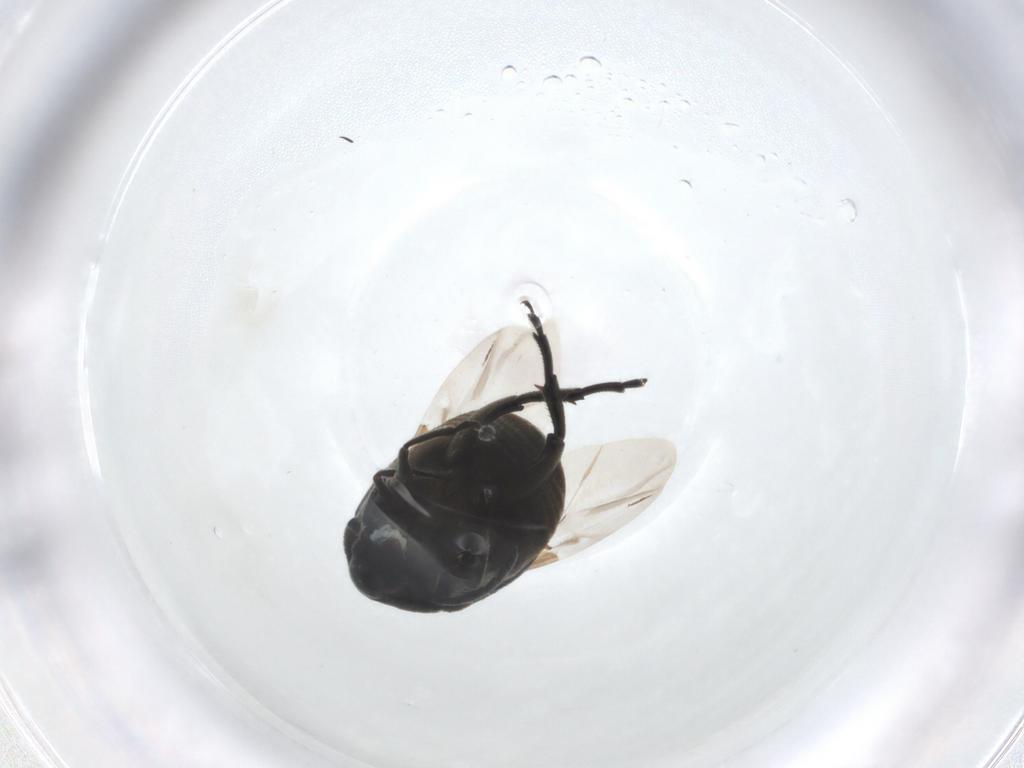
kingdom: Animalia
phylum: Arthropoda
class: Insecta
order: Coleoptera
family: Chrysomelidae
